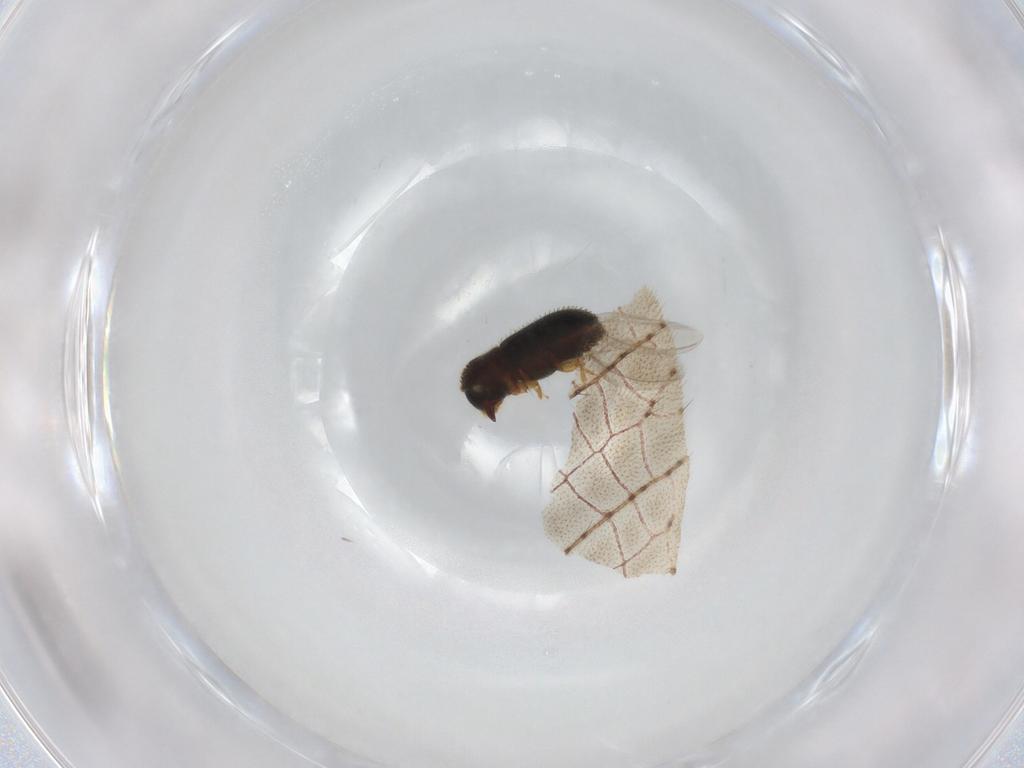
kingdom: Animalia
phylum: Arthropoda
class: Insecta
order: Coleoptera
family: Curculionidae
